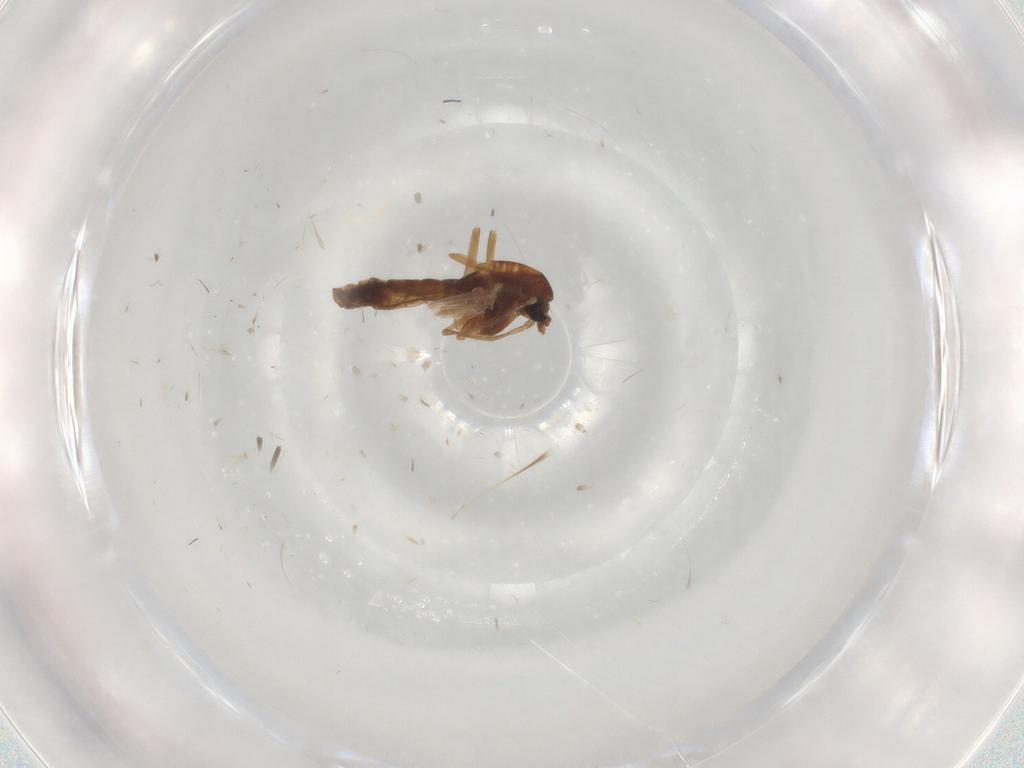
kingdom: Animalia
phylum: Arthropoda
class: Insecta
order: Diptera
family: Chironomidae
